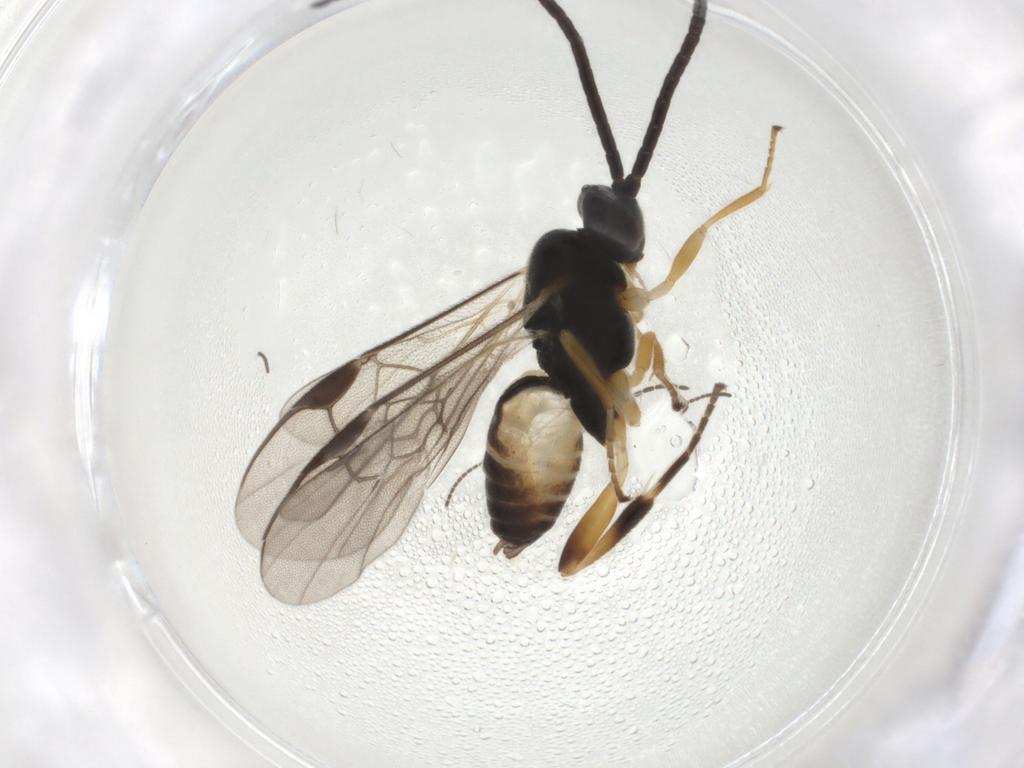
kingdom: Animalia
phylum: Arthropoda
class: Insecta
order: Hymenoptera
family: Braconidae
